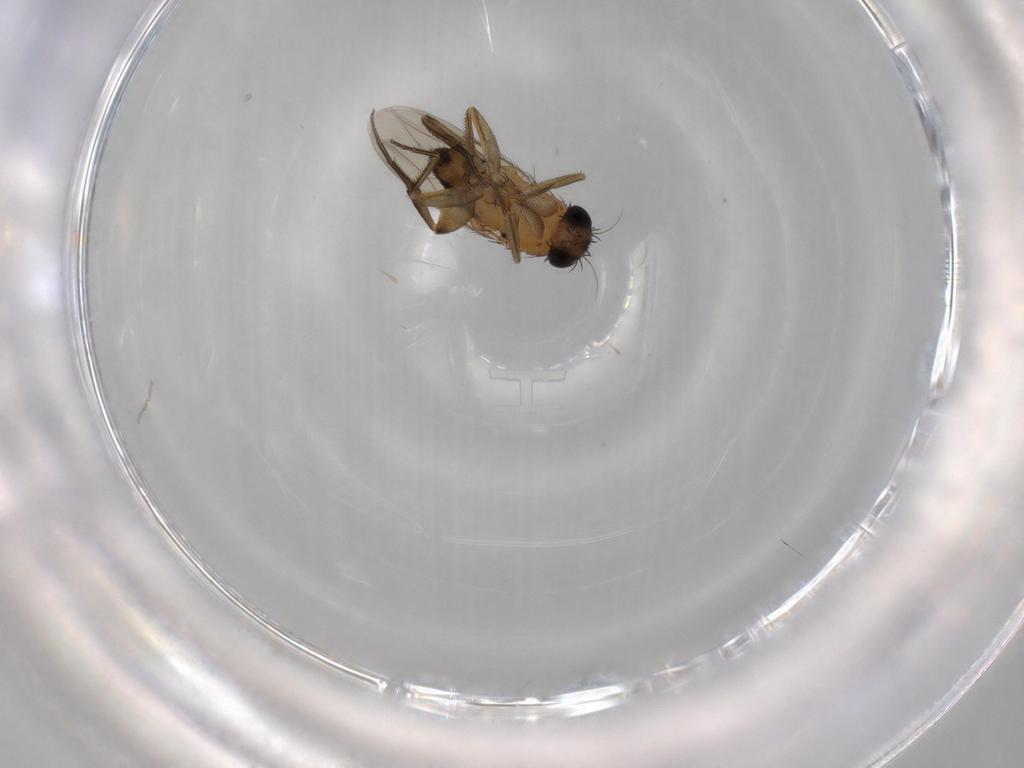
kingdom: Animalia
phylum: Arthropoda
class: Insecta
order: Diptera
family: Phoridae
